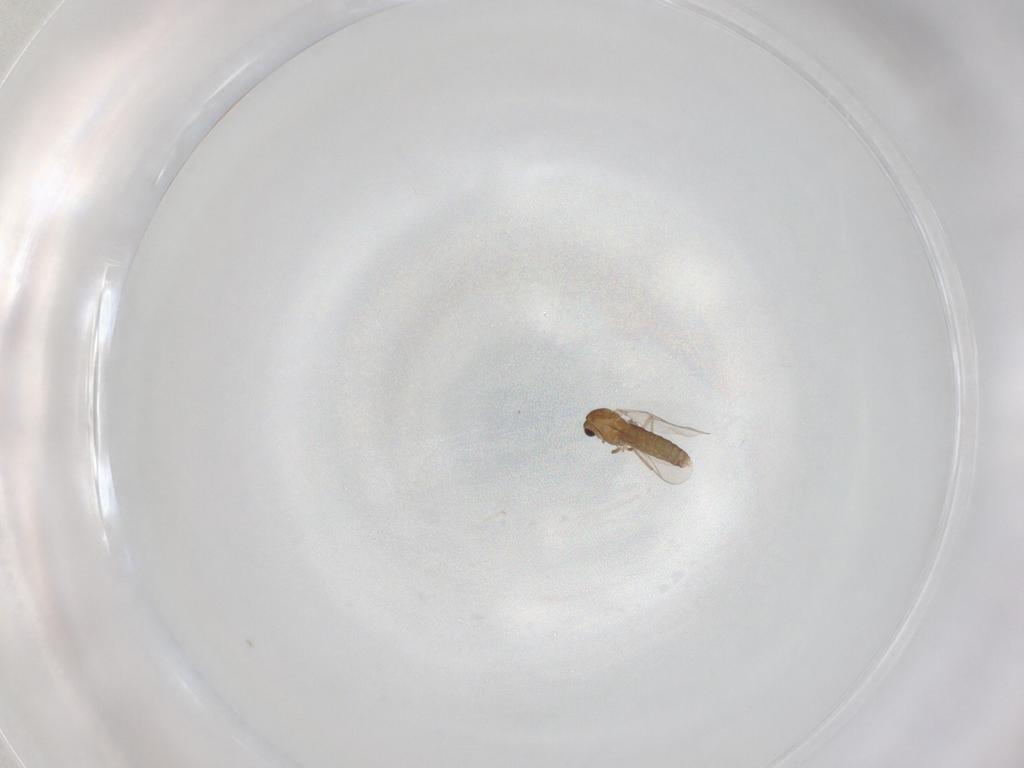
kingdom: Animalia
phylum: Arthropoda
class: Insecta
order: Diptera
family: Chironomidae
